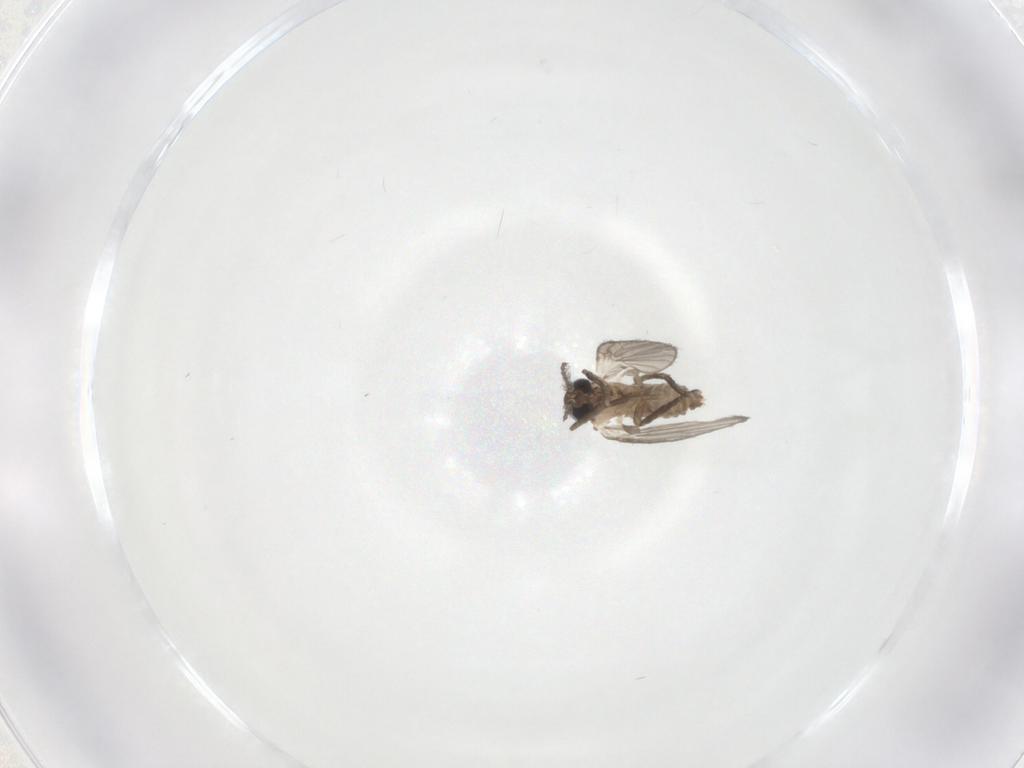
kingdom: Animalia
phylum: Arthropoda
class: Insecta
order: Diptera
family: Psychodidae
